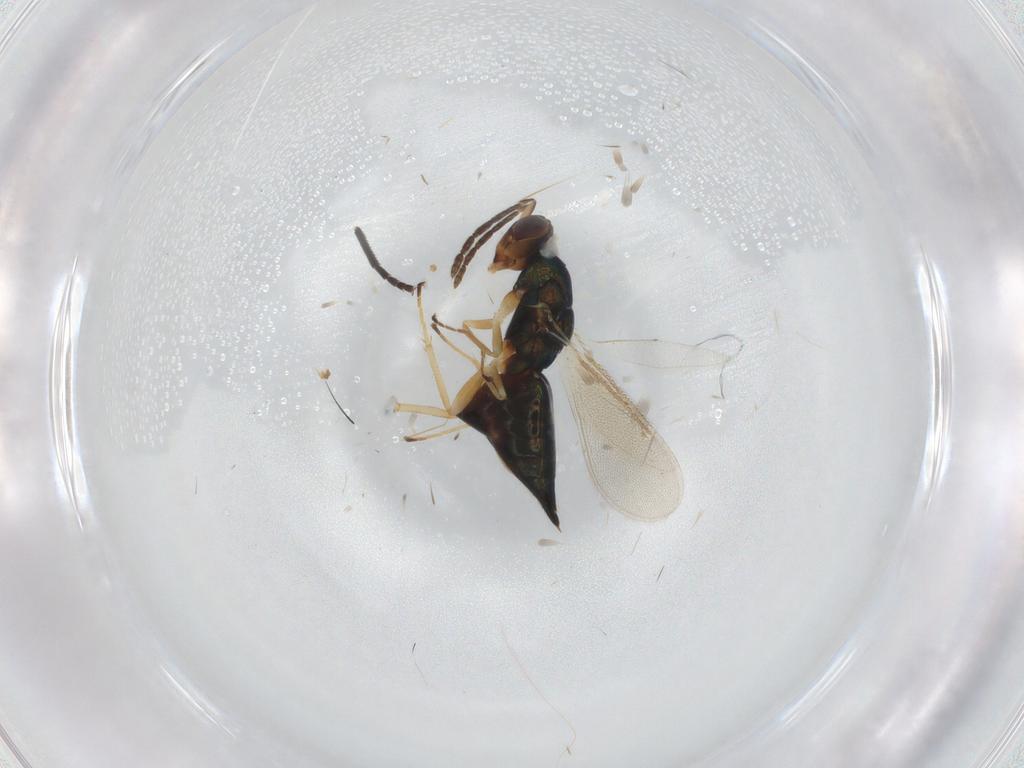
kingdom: Animalia
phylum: Arthropoda
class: Insecta
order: Hymenoptera
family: Eulophidae
